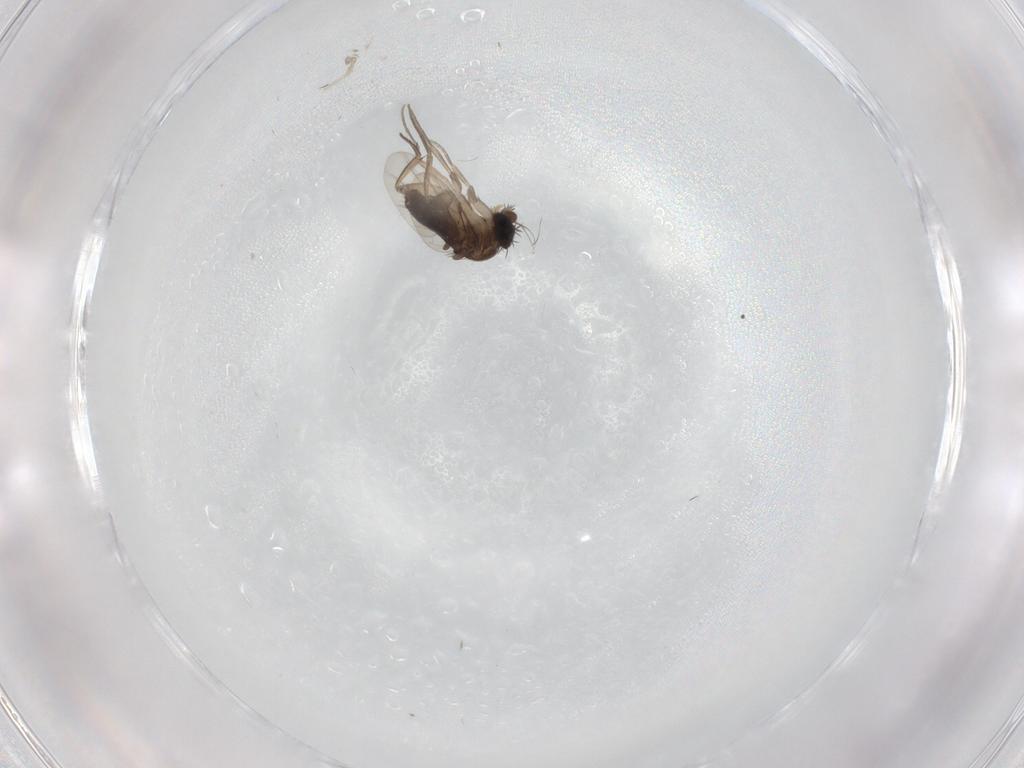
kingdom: Animalia
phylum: Arthropoda
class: Insecta
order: Diptera
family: Phoridae
